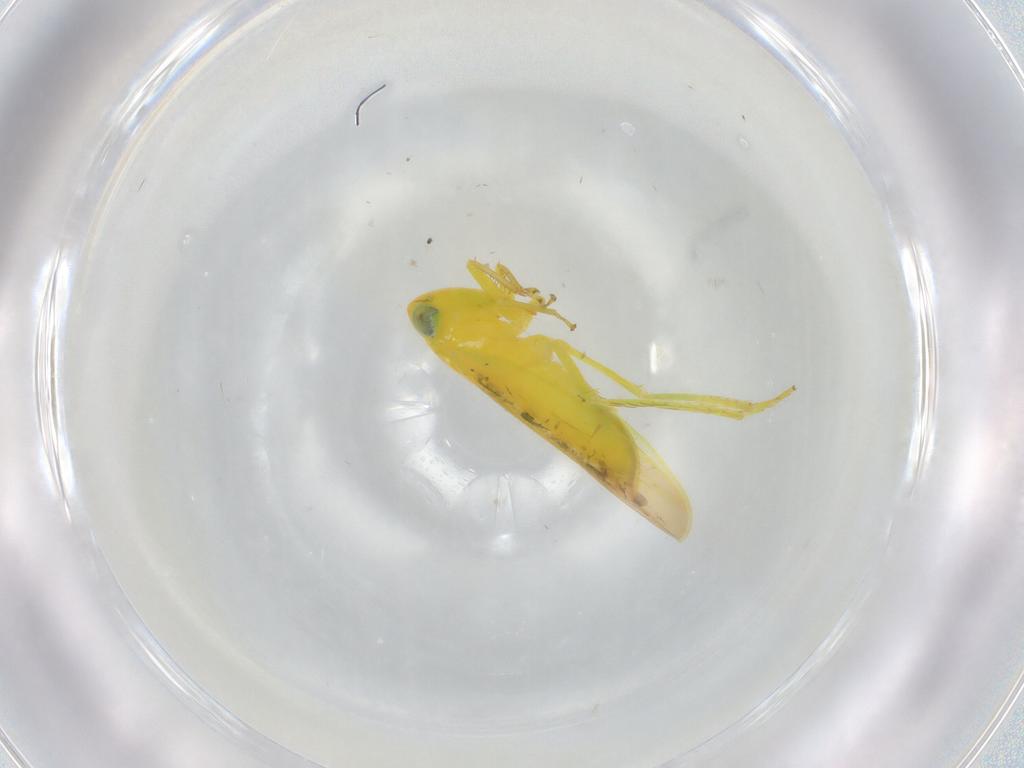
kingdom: Animalia
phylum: Arthropoda
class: Insecta
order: Hemiptera
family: Cicadellidae
